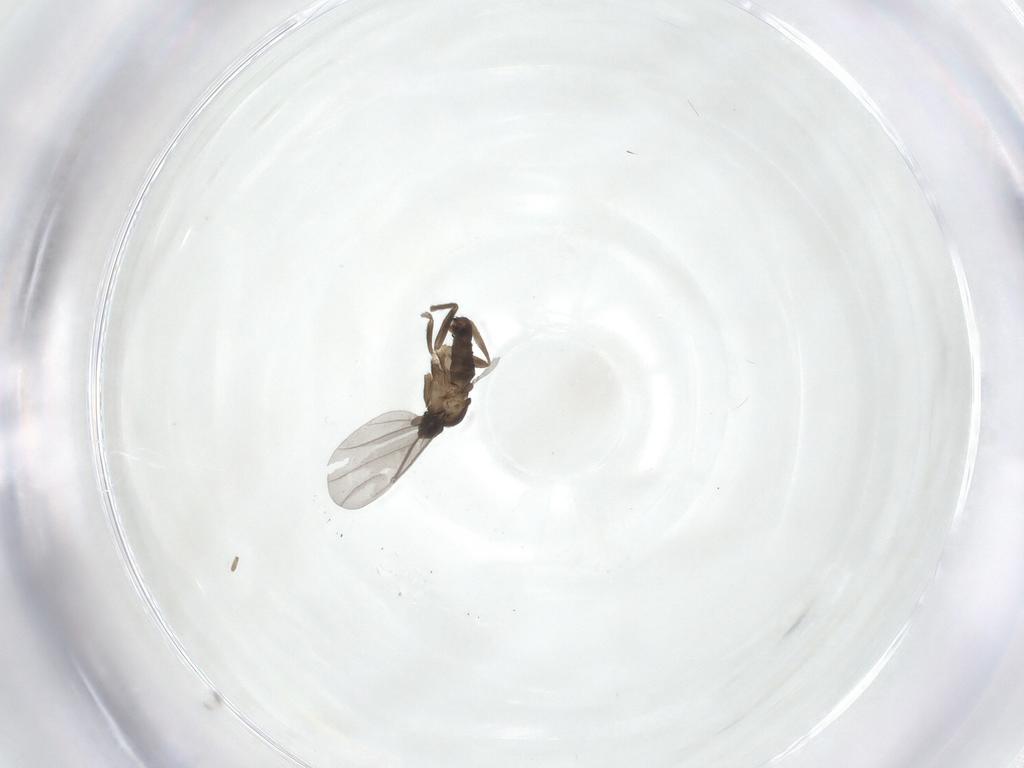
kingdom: Animalia
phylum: Arthropoda
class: Insecta
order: Diptera
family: Phoridae
